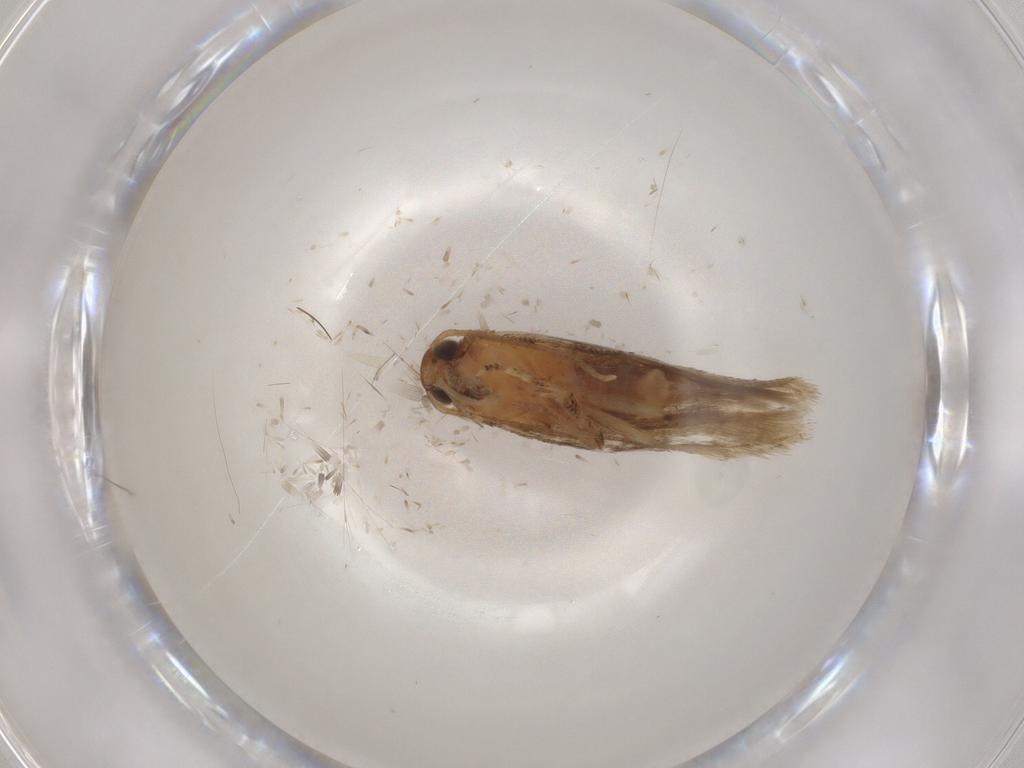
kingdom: Animalia
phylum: Arthropoda
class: Insecta
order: Lepidoptera
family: Gelechiidae
